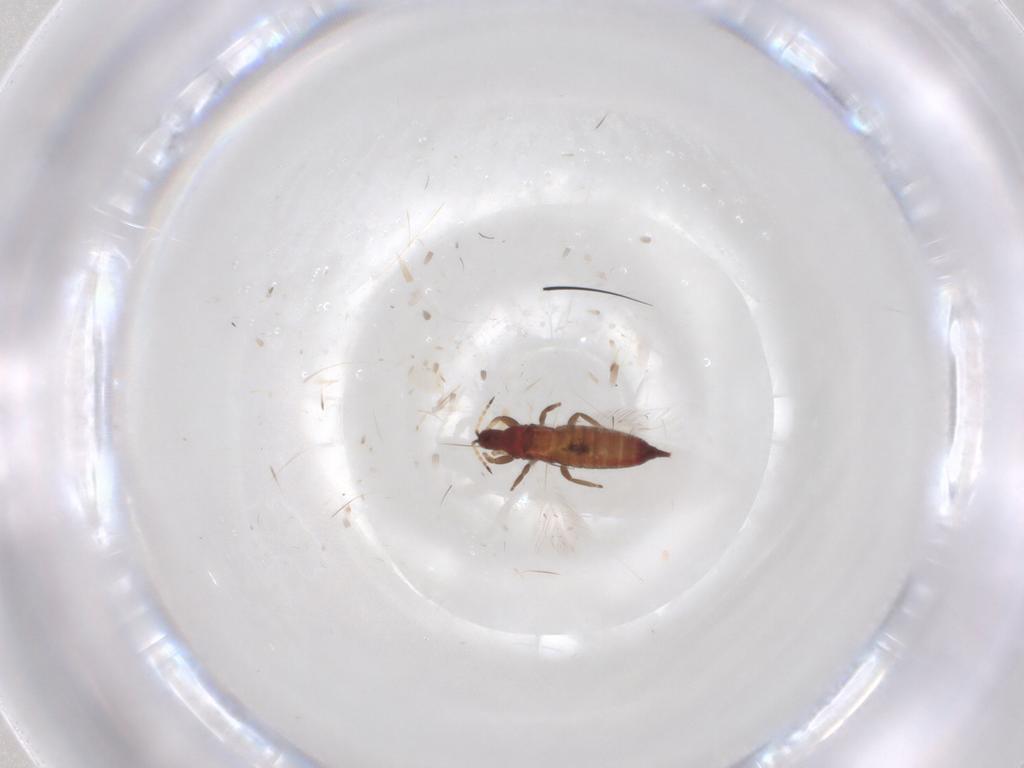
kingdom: Animalia
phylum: Arthropoda
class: Insecta
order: Thysanoptera
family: Phlaeothripidae
